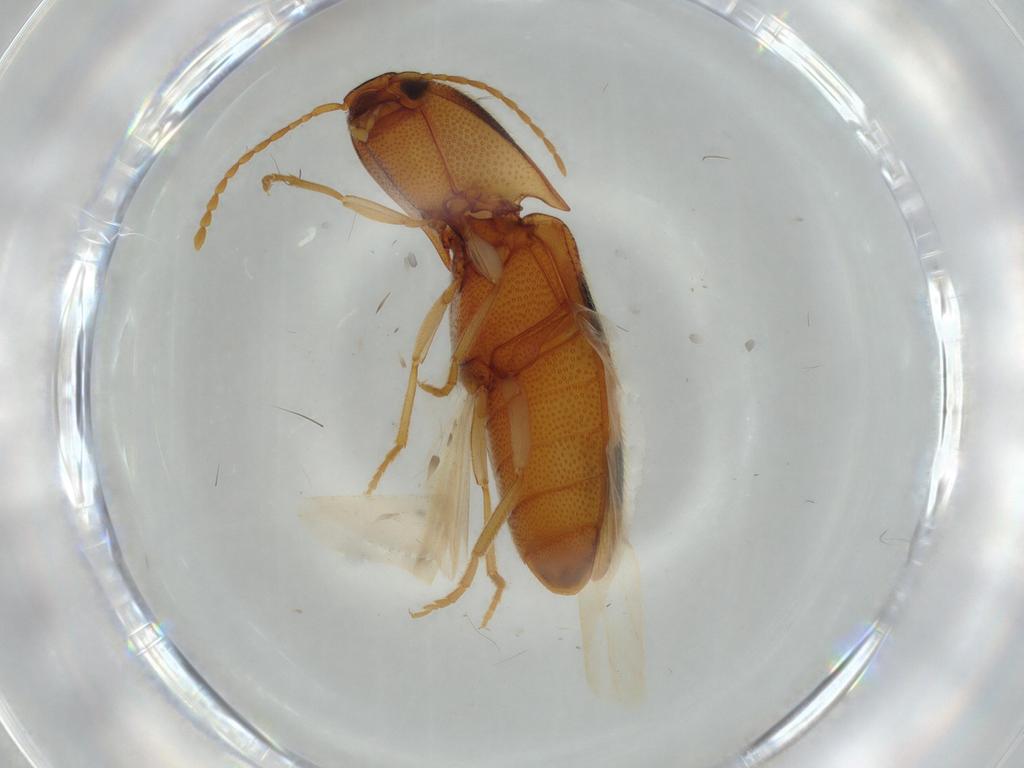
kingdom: Animalia
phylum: Arthropoda
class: Insecta
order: Coleoptera
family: Elateridae
